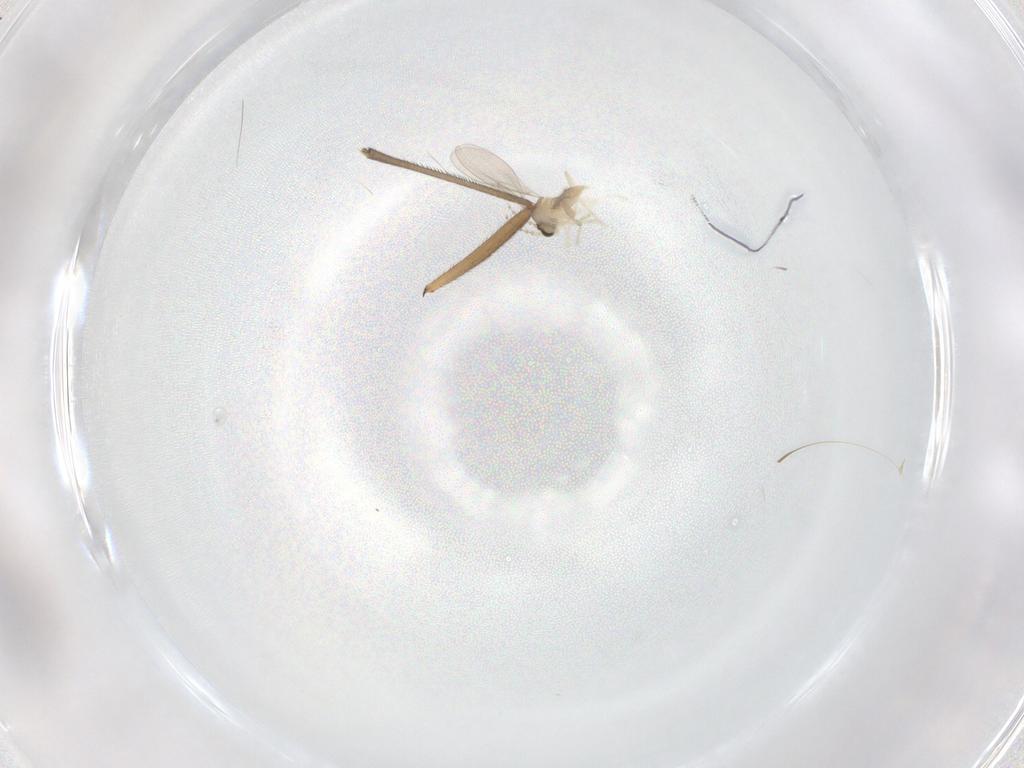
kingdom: Animalia
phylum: Arthropoda
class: Insecta
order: Diptera
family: Sciaridae
